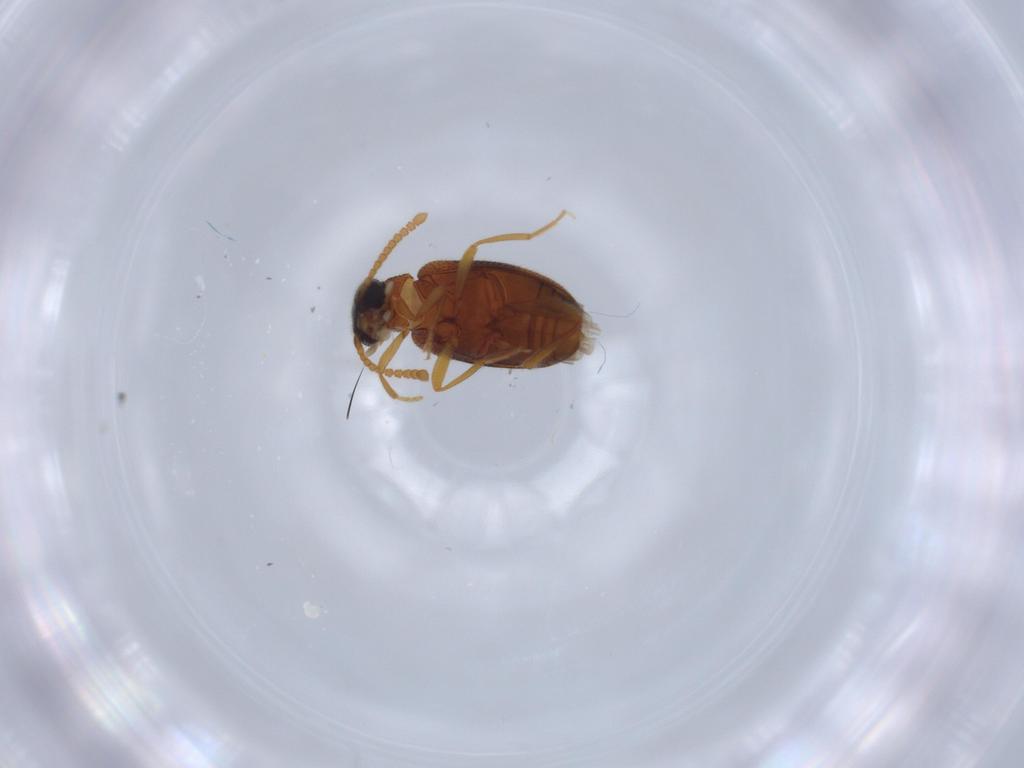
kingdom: Animalia
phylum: Arthropoda
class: Insecta
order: Coleoptera
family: Aderidae
